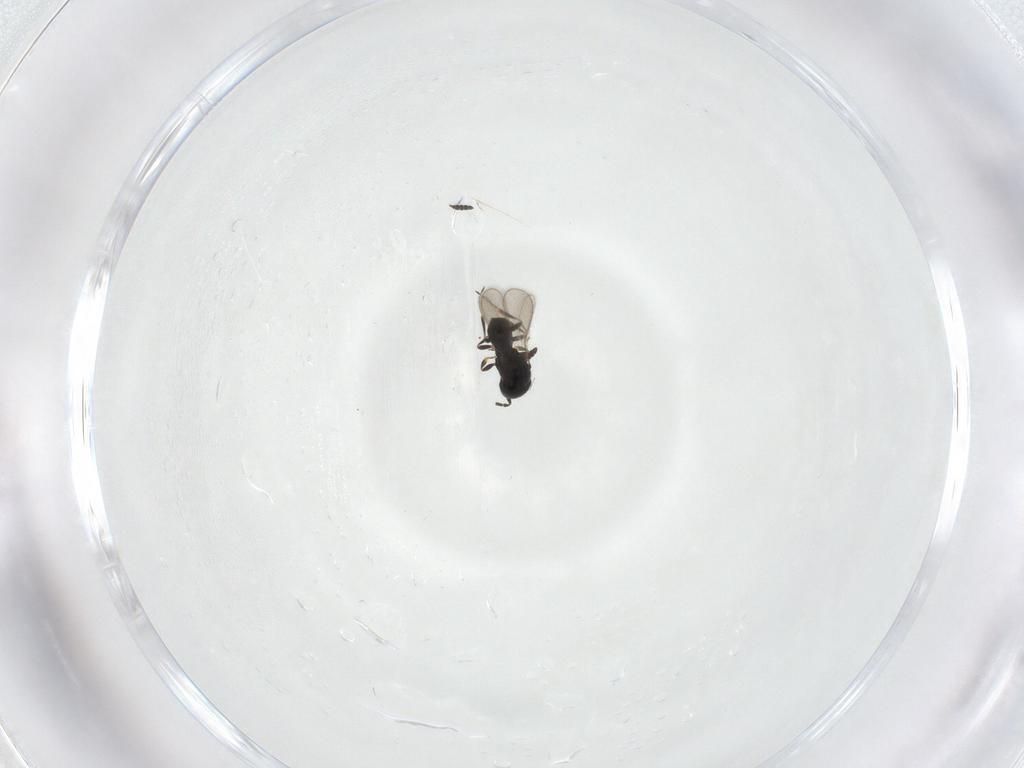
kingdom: Animalia
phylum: Arthropoda
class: Insecta
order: Hymenoptera
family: Scelionidae
